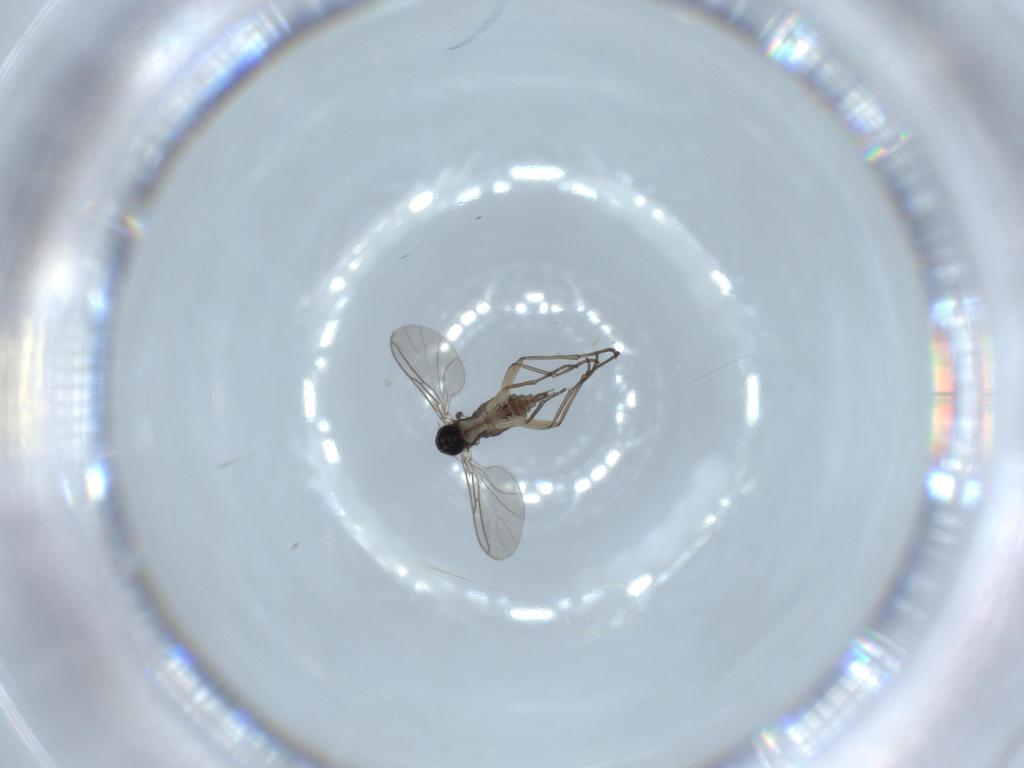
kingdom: Animalia
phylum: Arthropoda
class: Insecta
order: Diptera
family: Sciaridae
